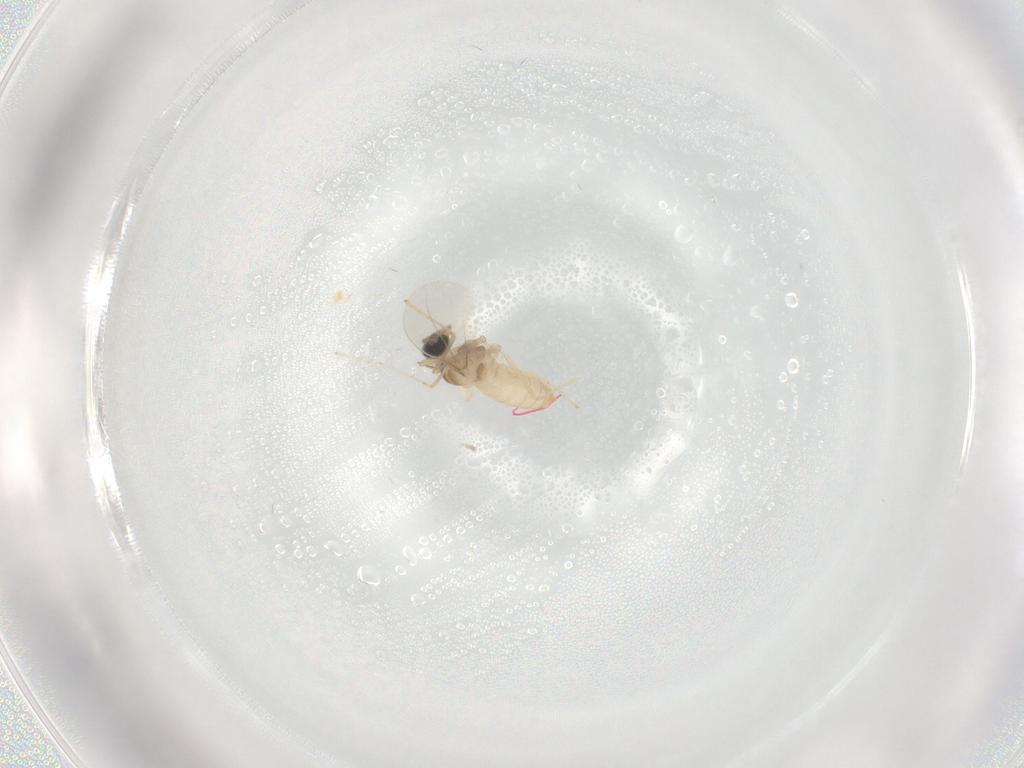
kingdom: Animalia
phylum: Arthropoda
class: Insecta
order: Diptera
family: Cecidomyiidae
